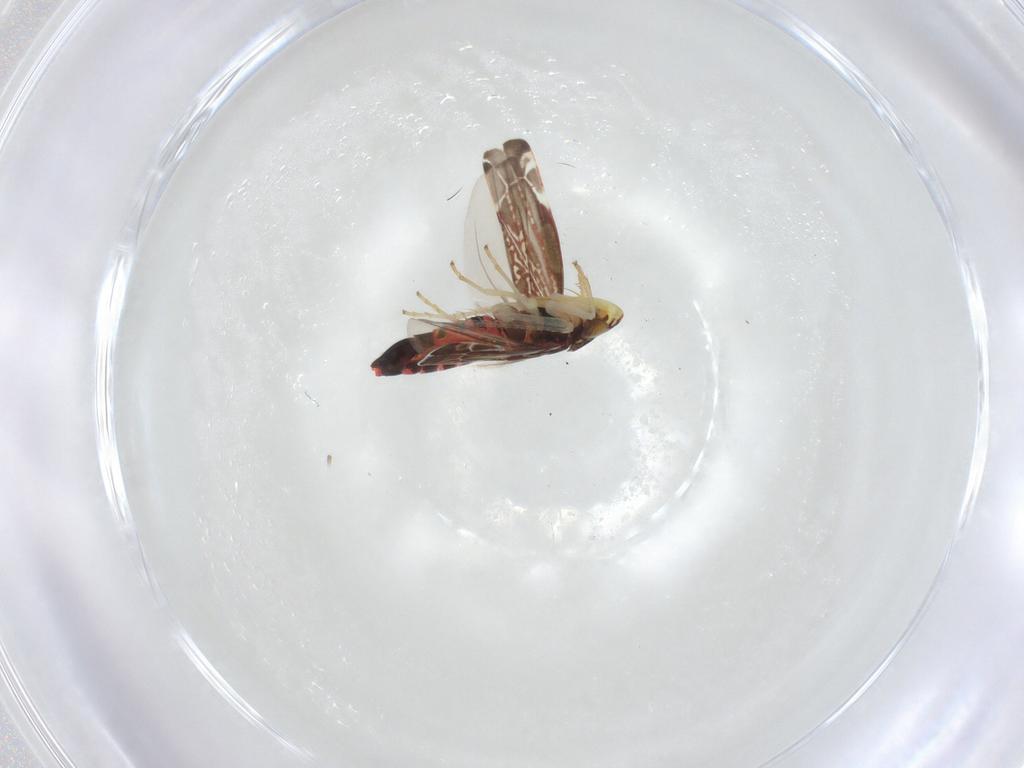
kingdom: Animalia
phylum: Arthropoda
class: Insecta
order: Hemiptera
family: Cicadellidae
